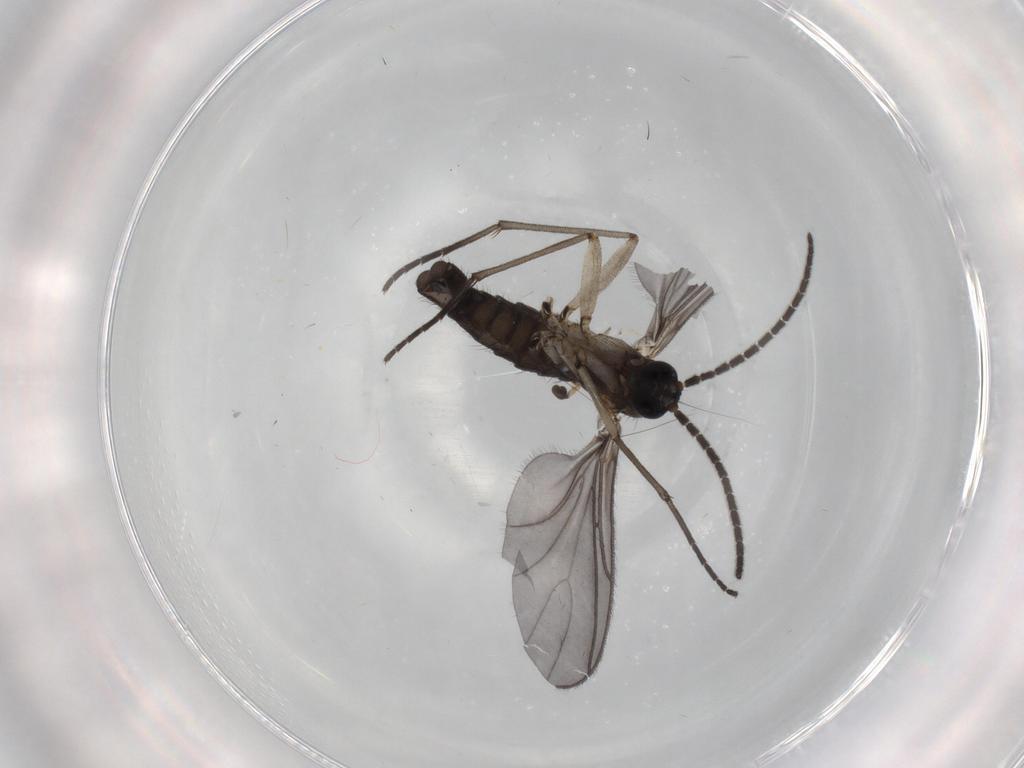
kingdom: Animalia
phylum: Arthropoda
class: Insecta
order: Diptera
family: Sciaridae
